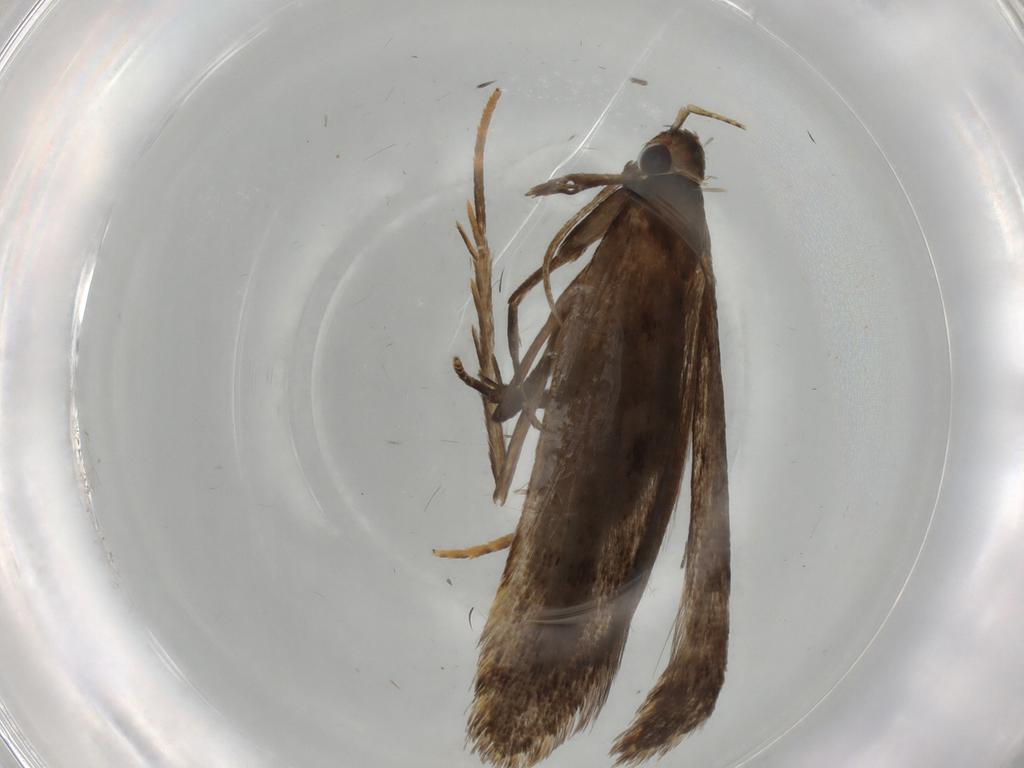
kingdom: Animalia
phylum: Arthropoda
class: Insecta
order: Lepidoptera
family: Gelechiidae
